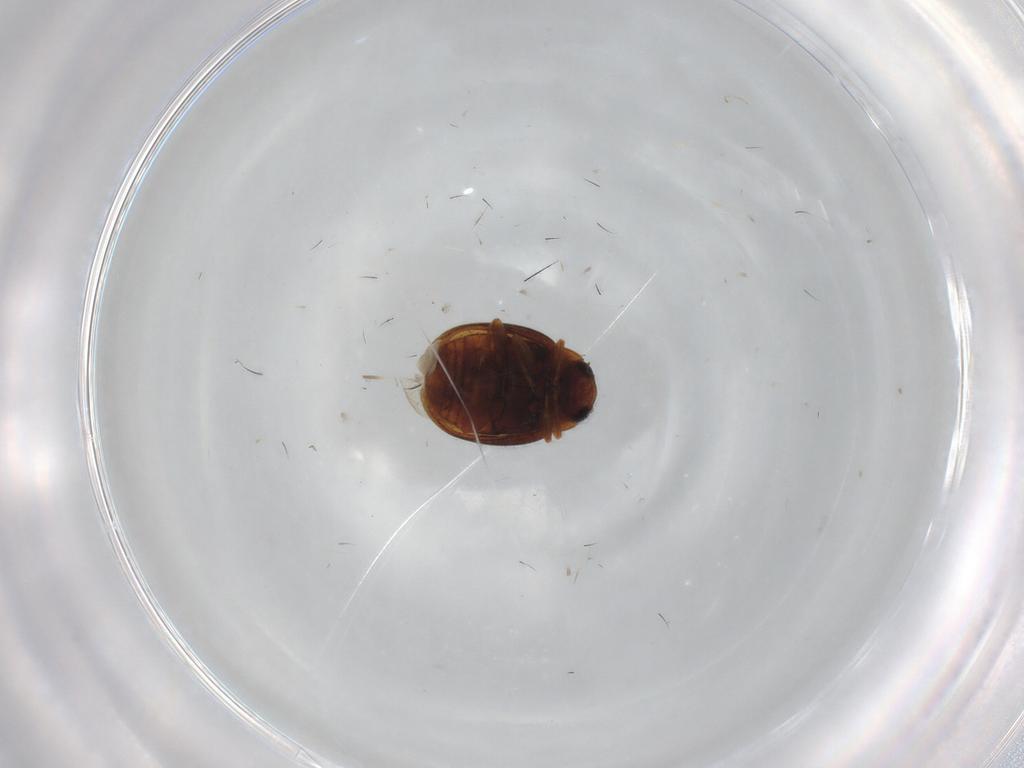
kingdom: Animalia
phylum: Arthropoda
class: Insecta
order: Coleoptera
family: Coccinellidae
